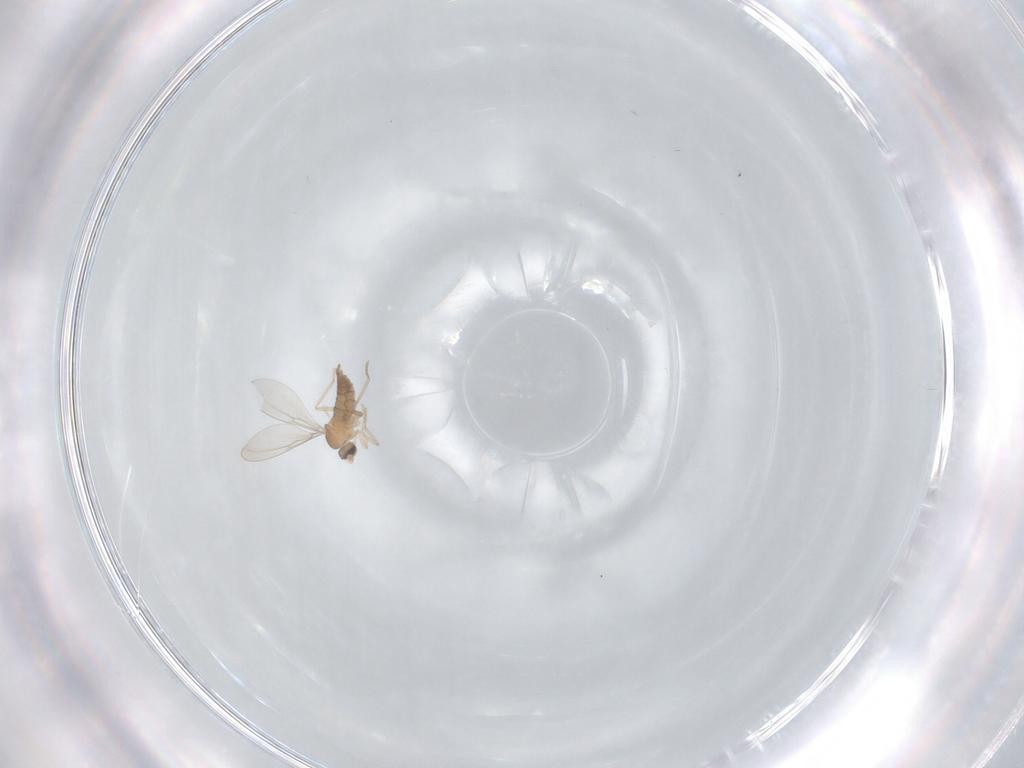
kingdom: Animalia
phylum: Arthropoda
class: Insecta
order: Diptera
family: Cecidomyiidae
